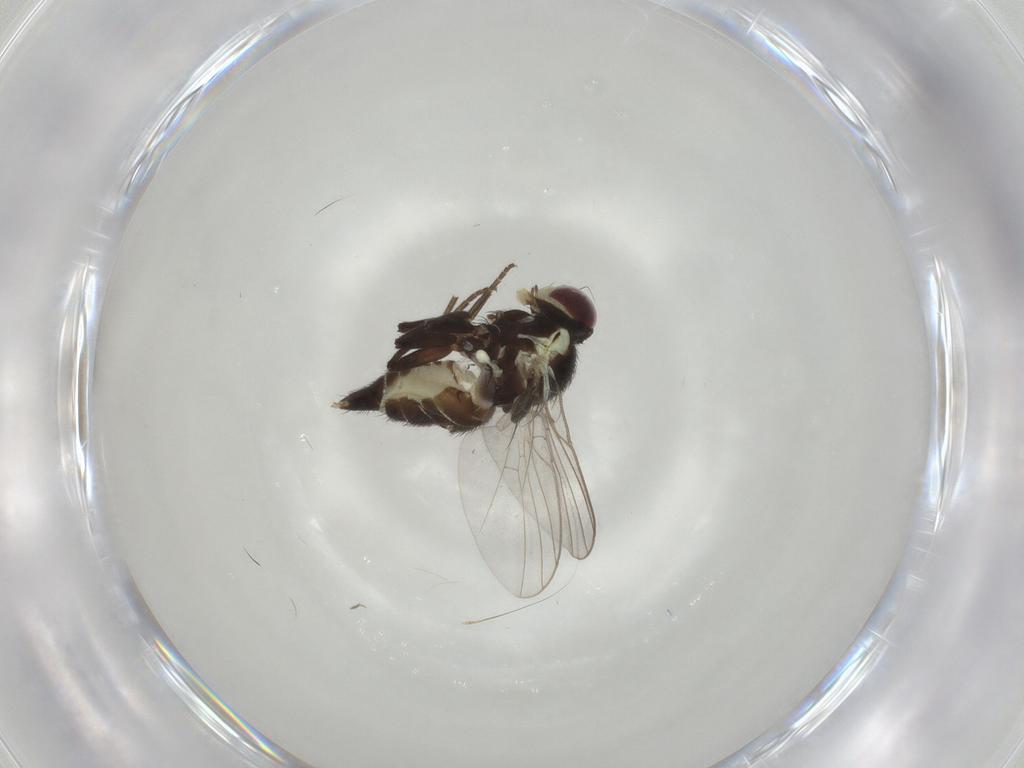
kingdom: Animalia
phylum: Arthropoda
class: Insecta
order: Diptera
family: Agromyzidae
